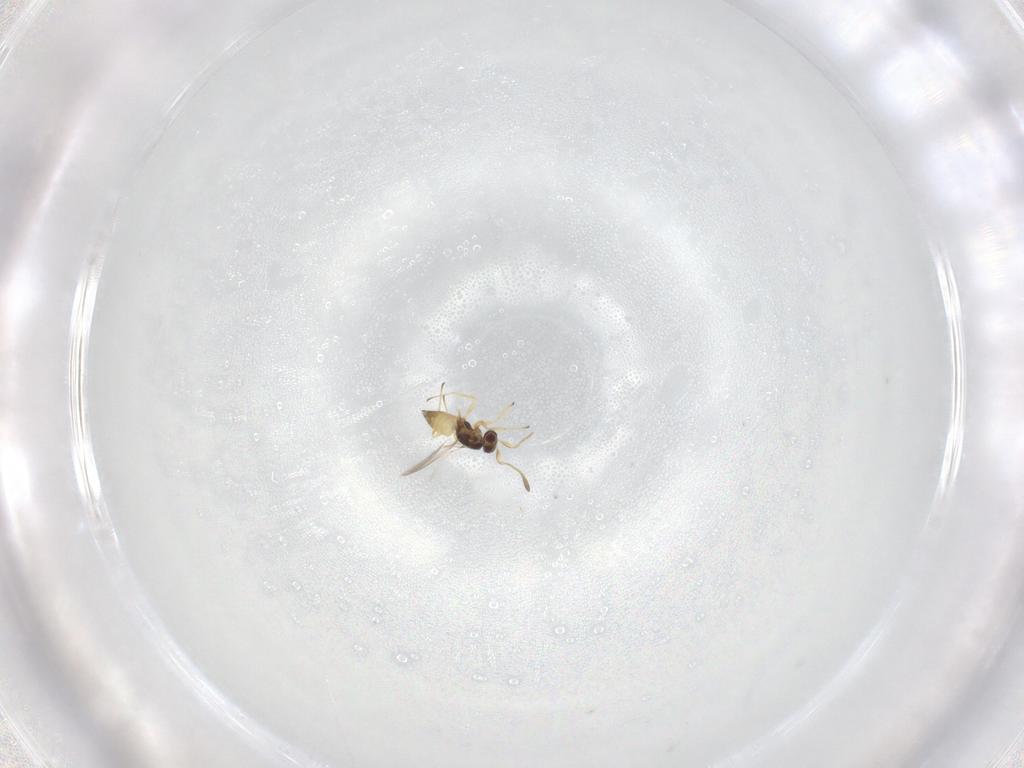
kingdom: Animalia
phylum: Arthropoda
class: Insecta
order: Hymenoptera
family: Mymaridae
